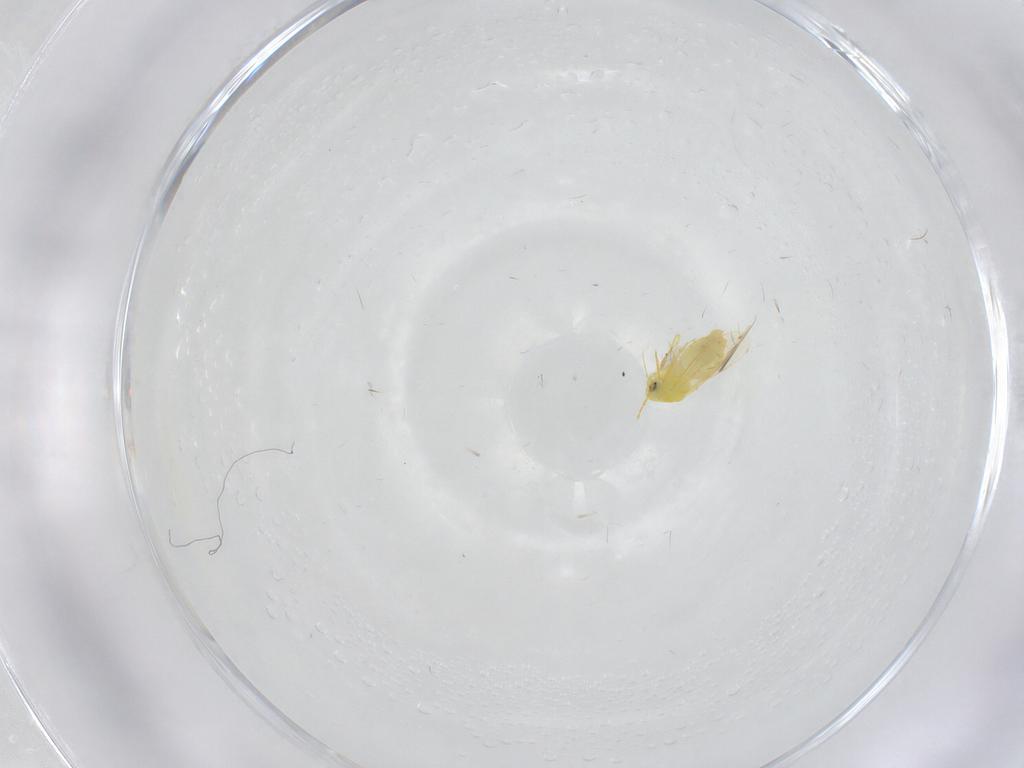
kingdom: Animalia
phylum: Arthropoda
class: Insecta
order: Hemiptera
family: Aleyrodidae
